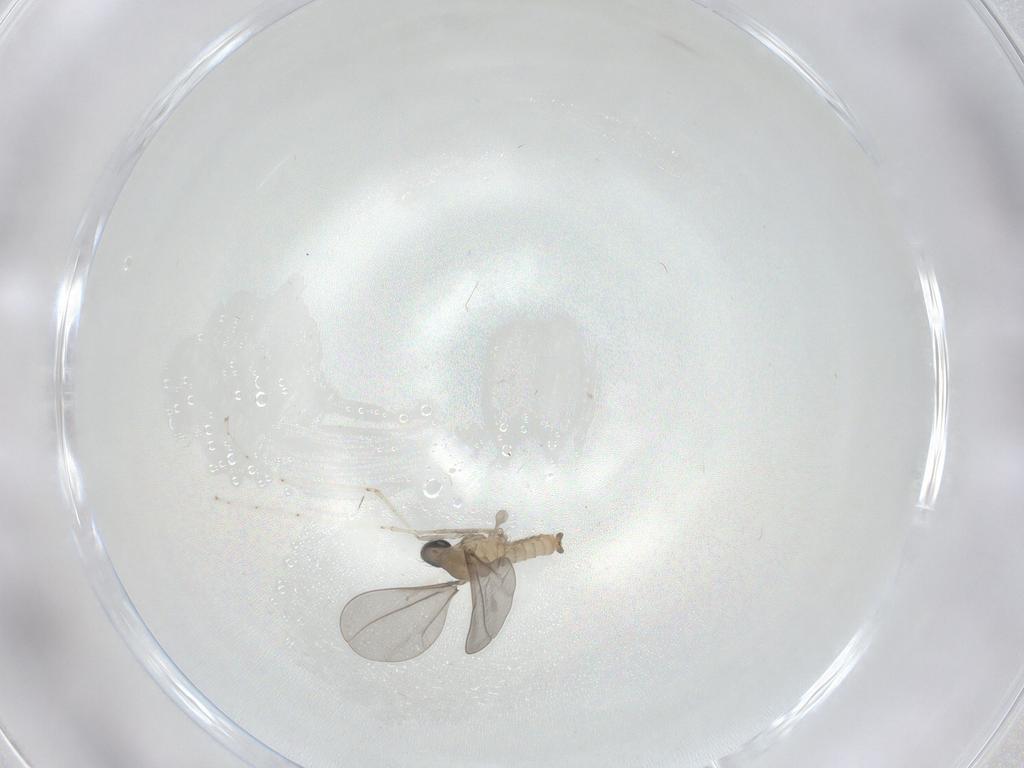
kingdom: Animalia
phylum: Arthropoda
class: Insecta
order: Diptera
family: Cecidomyiidae
